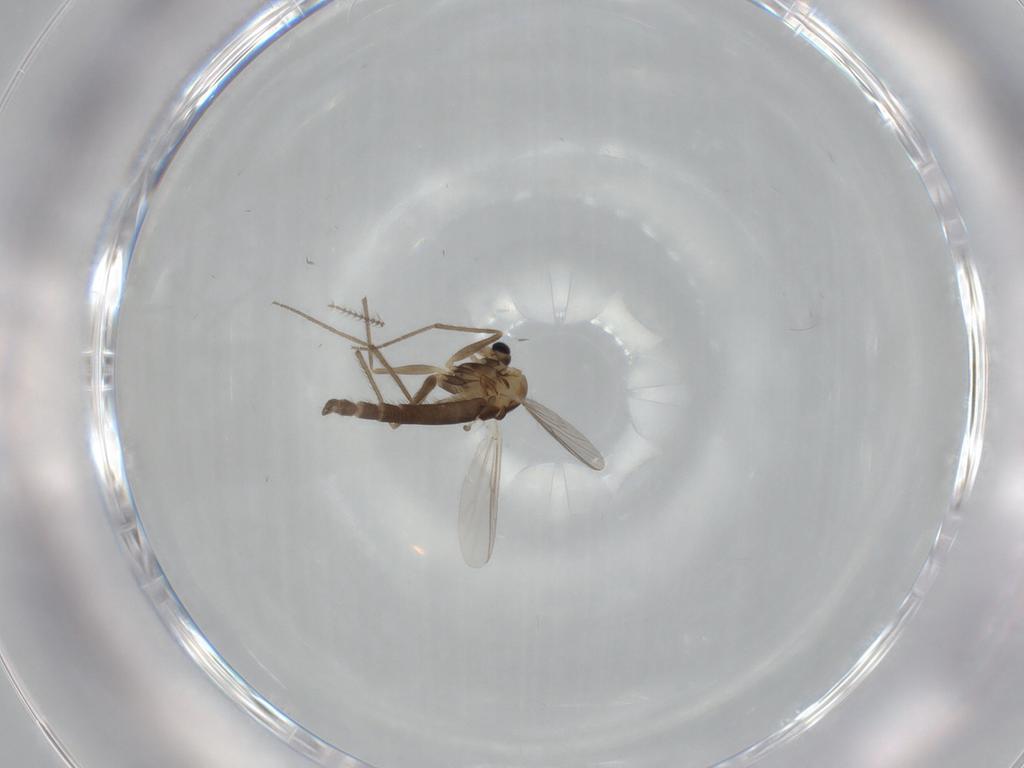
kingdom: Animalia
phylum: Arthropoda
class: Insecta
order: Diptera
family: Chironomidae
